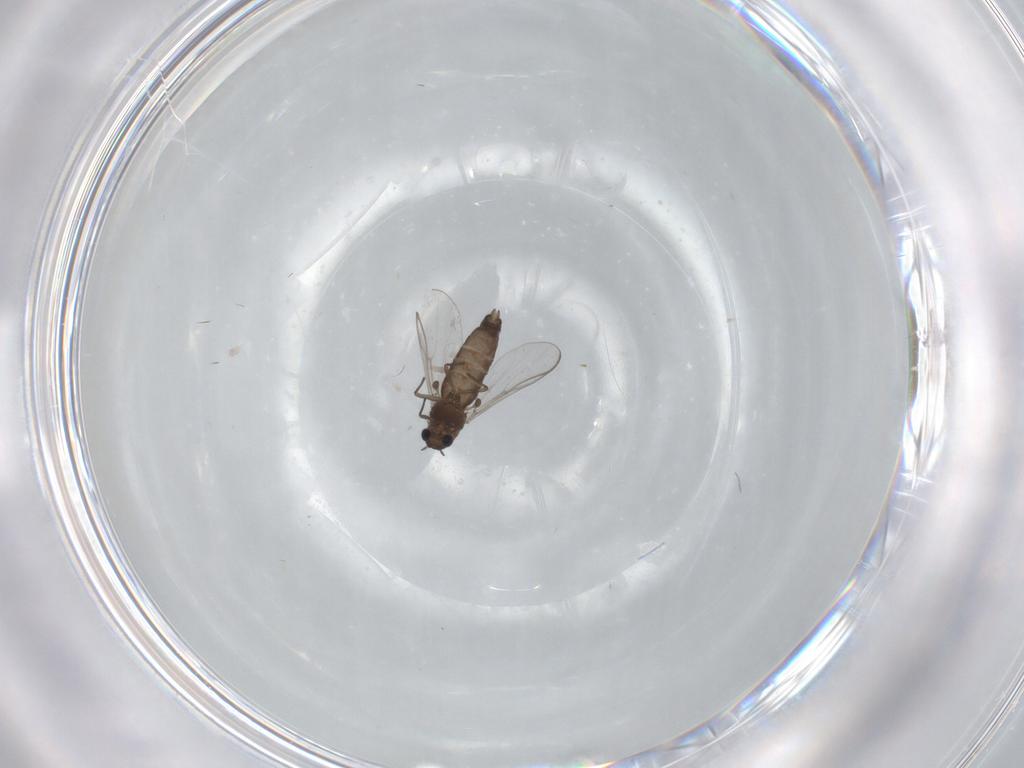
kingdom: Animalia
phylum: Arthropoda
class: Insecta
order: Diptera
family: Chironomidae
